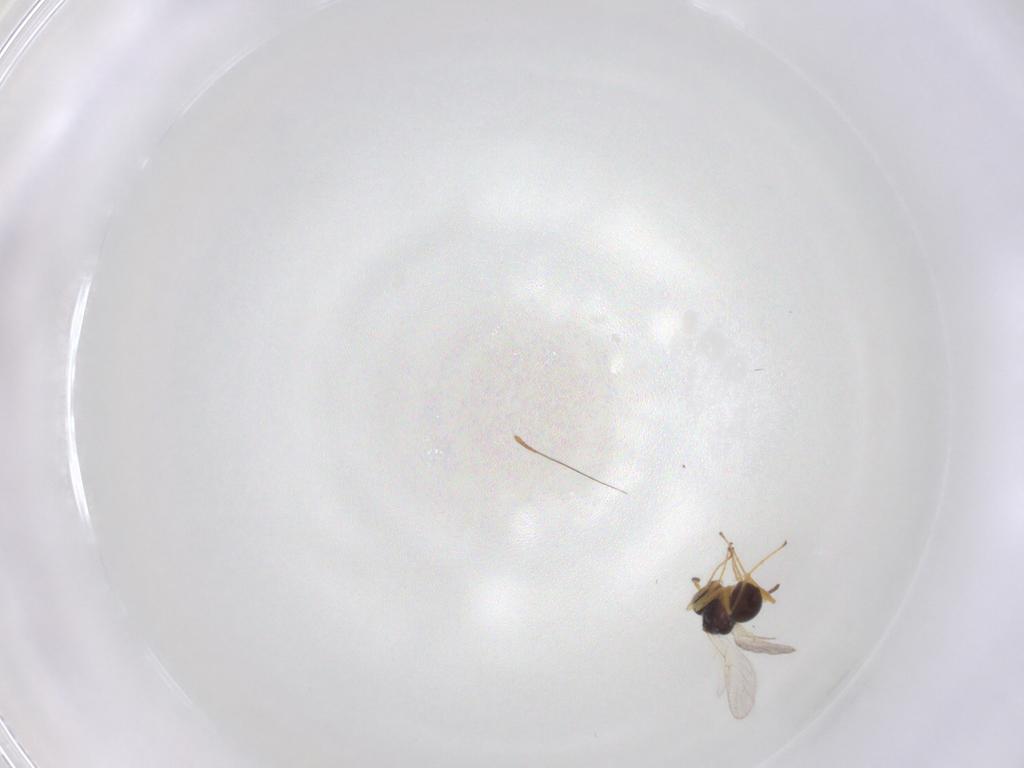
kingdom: Animalia
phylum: Arthropoda
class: Insecta
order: Hymenoptera
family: Figitidae
